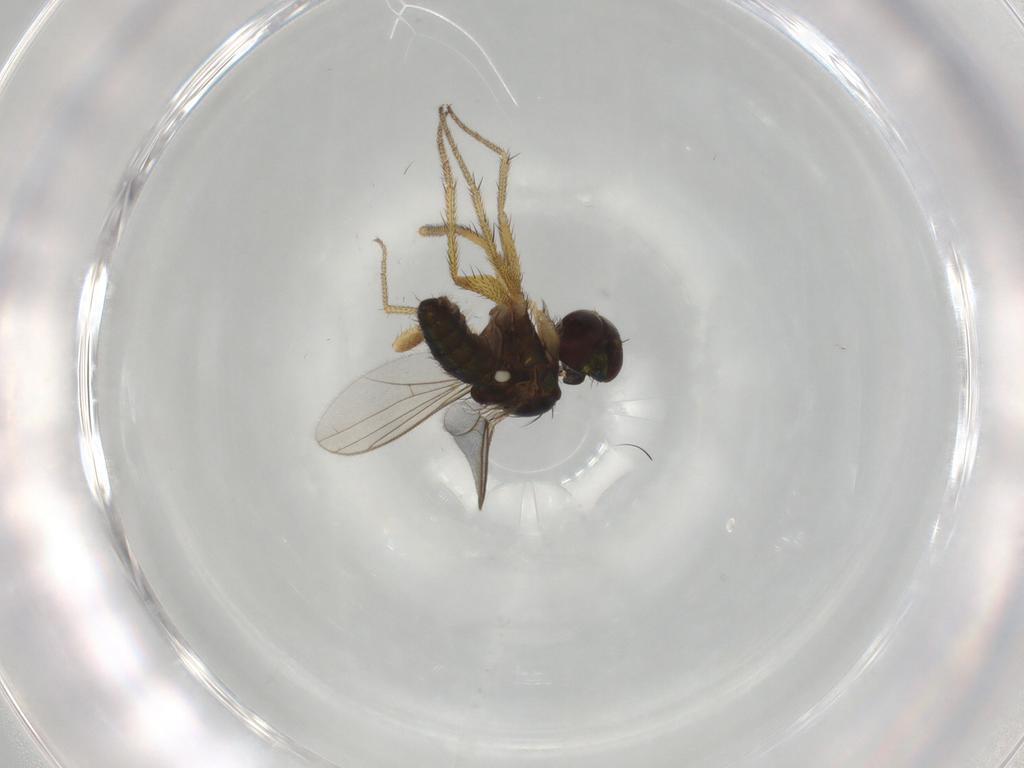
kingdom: Animalia
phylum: Arthropoda
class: Insecta
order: Diptera
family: Dolichopodidae
